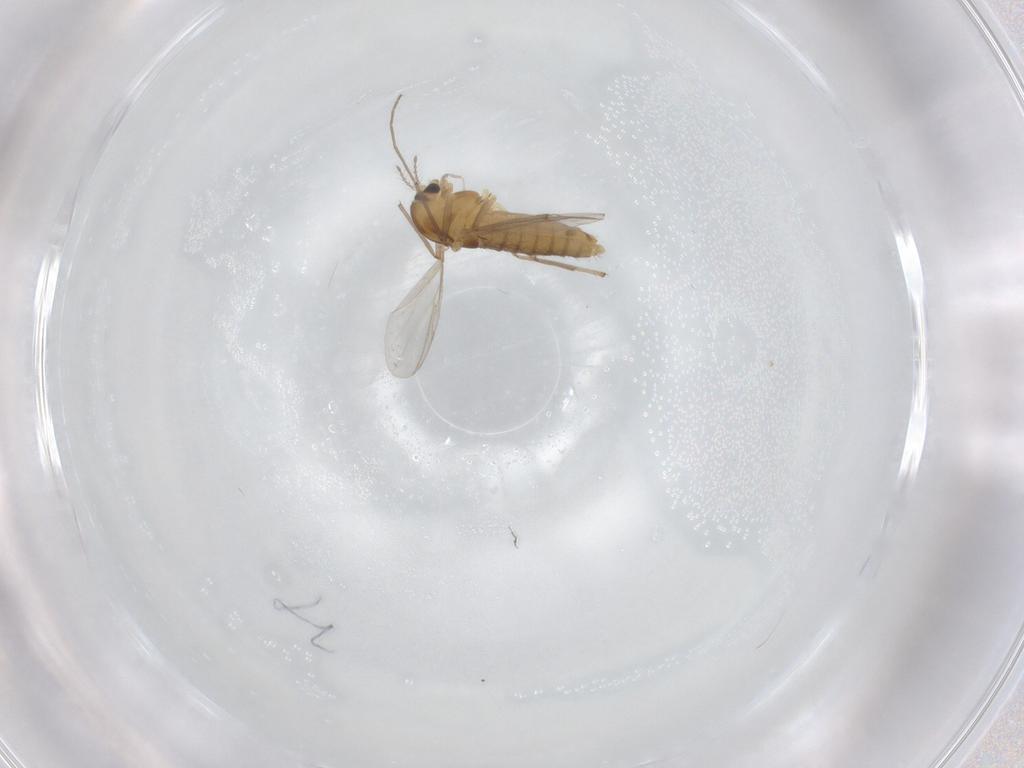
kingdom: Animalia
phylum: Arthropoda
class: Insecta
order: Diptera
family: Chironomidae
